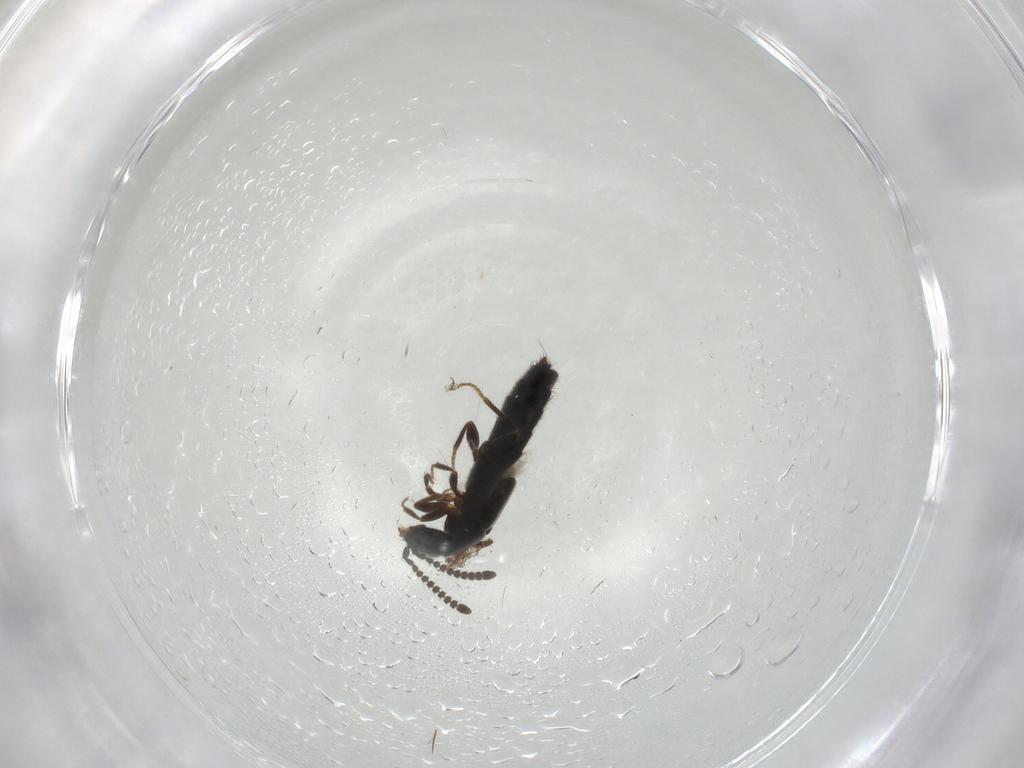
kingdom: Animalia
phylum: Arthropoda
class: Insecta
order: Coleoptera
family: Staphylinidae
